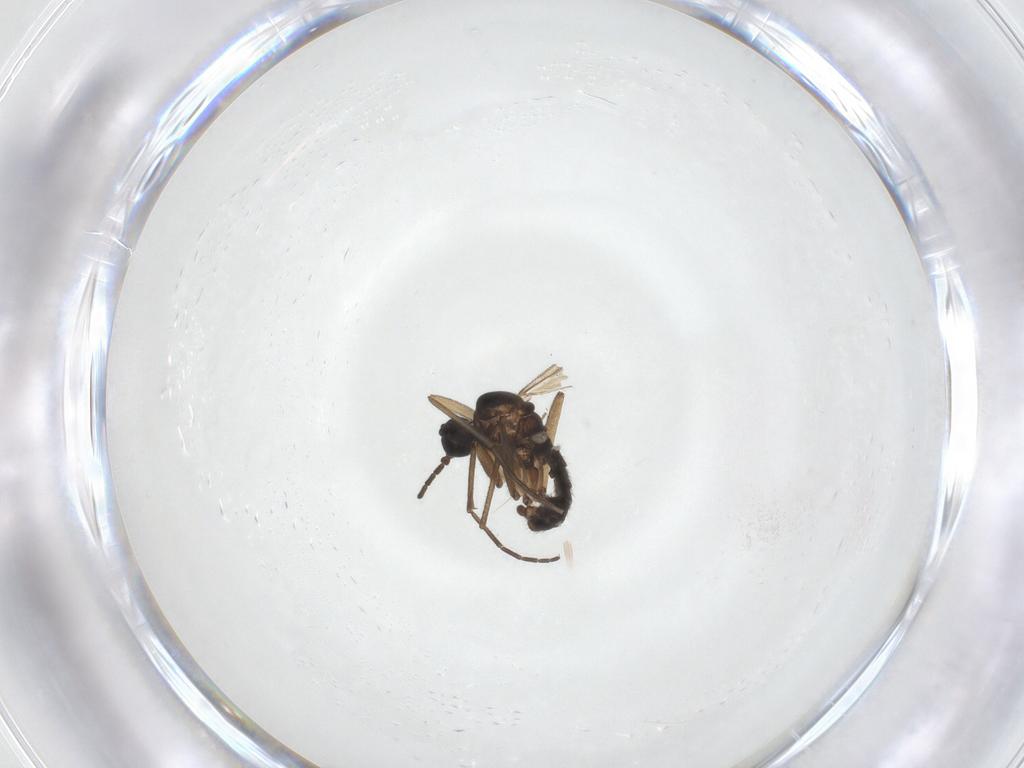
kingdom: Animalia
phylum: Arthropoda
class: Insecta
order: Diptera
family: Sciaridae
